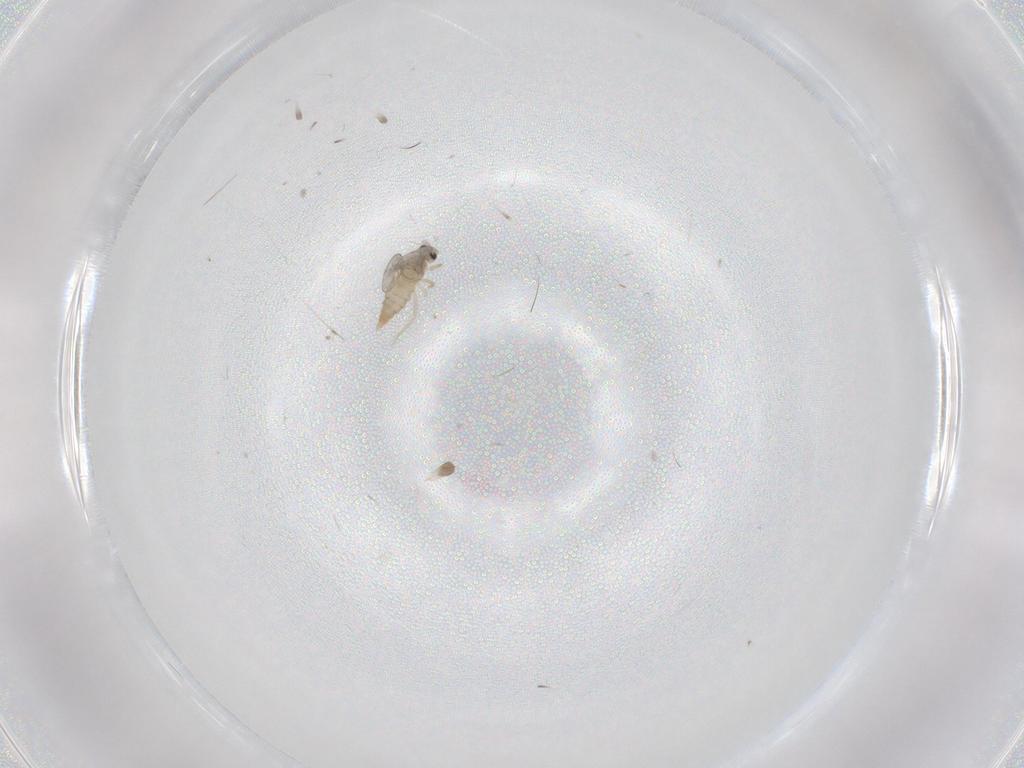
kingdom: Animalia
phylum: Arthropoda
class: Insecta
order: Diptera
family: Cecidomyiidae
